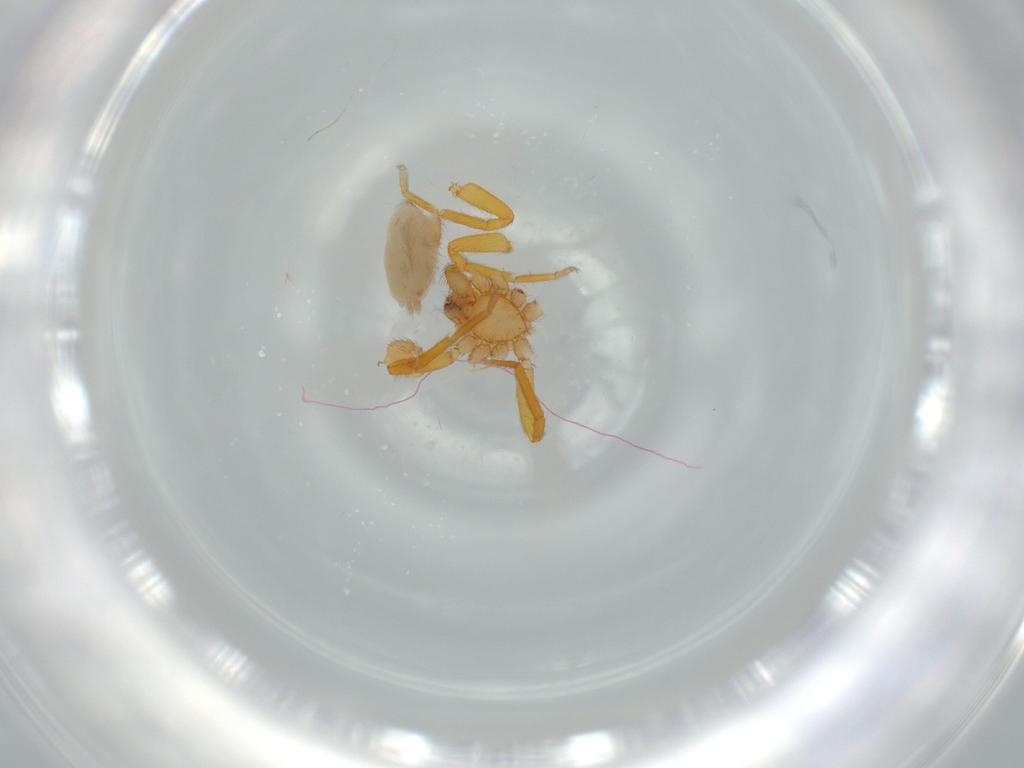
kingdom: Animalia
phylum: Arthropoda
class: Arachnida
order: Araneae
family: Oonopidae
